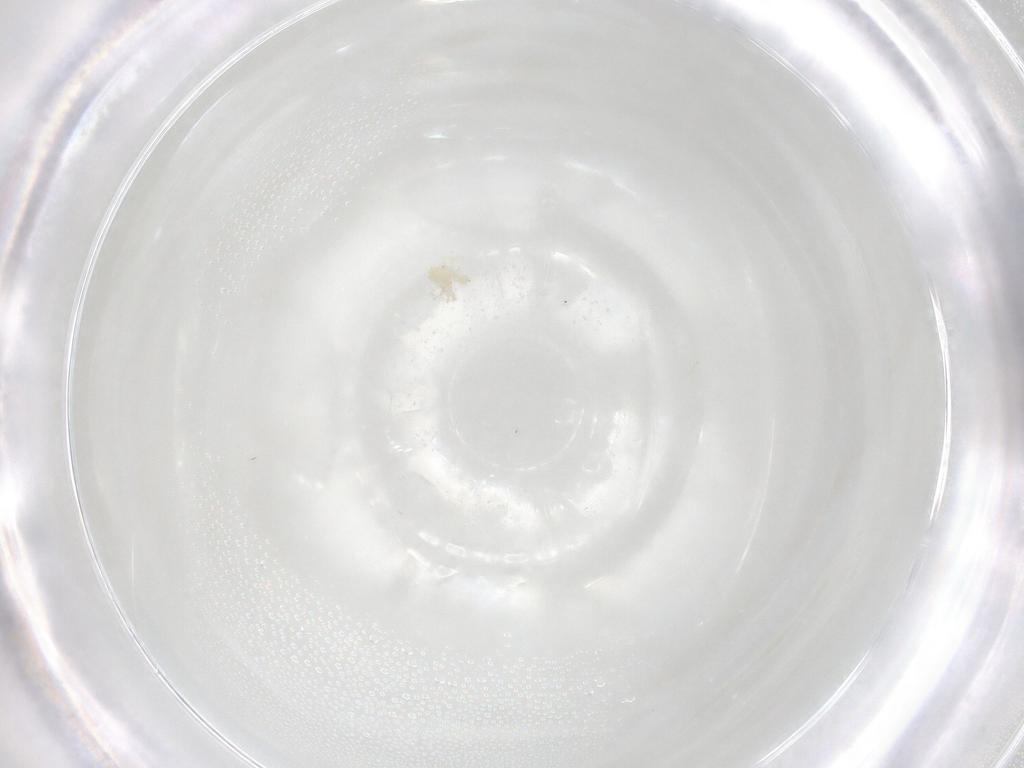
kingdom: Animalia
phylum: Arthropoda
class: Arachnida
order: Trombidiformes
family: Anystidae
